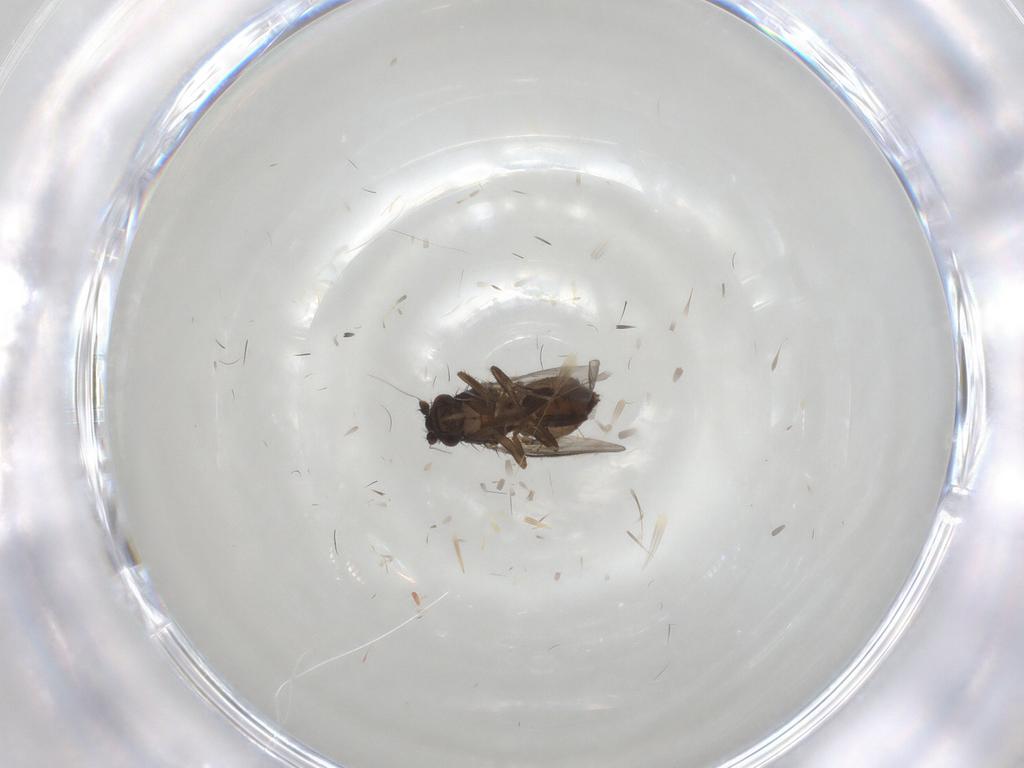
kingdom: Animalia
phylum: Arthropoda
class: Insecta
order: Diptera
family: Sphaeroceridae
